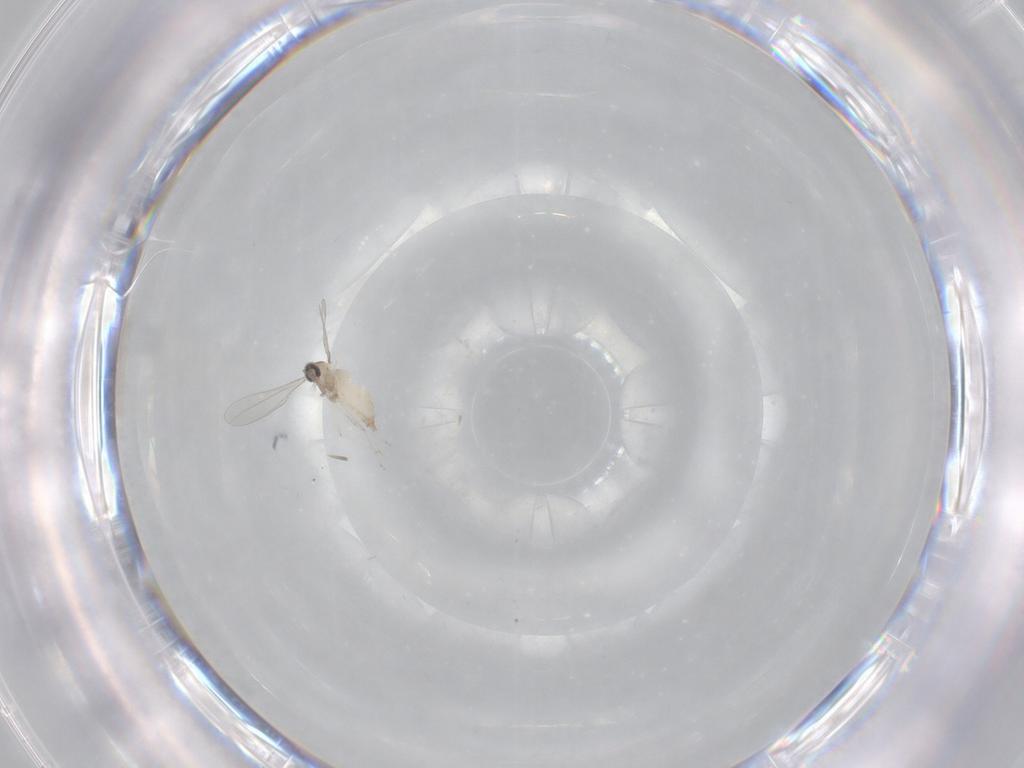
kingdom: Animalia
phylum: Arthropoda
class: Insecta
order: Diptera
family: Cecidomyiidae
